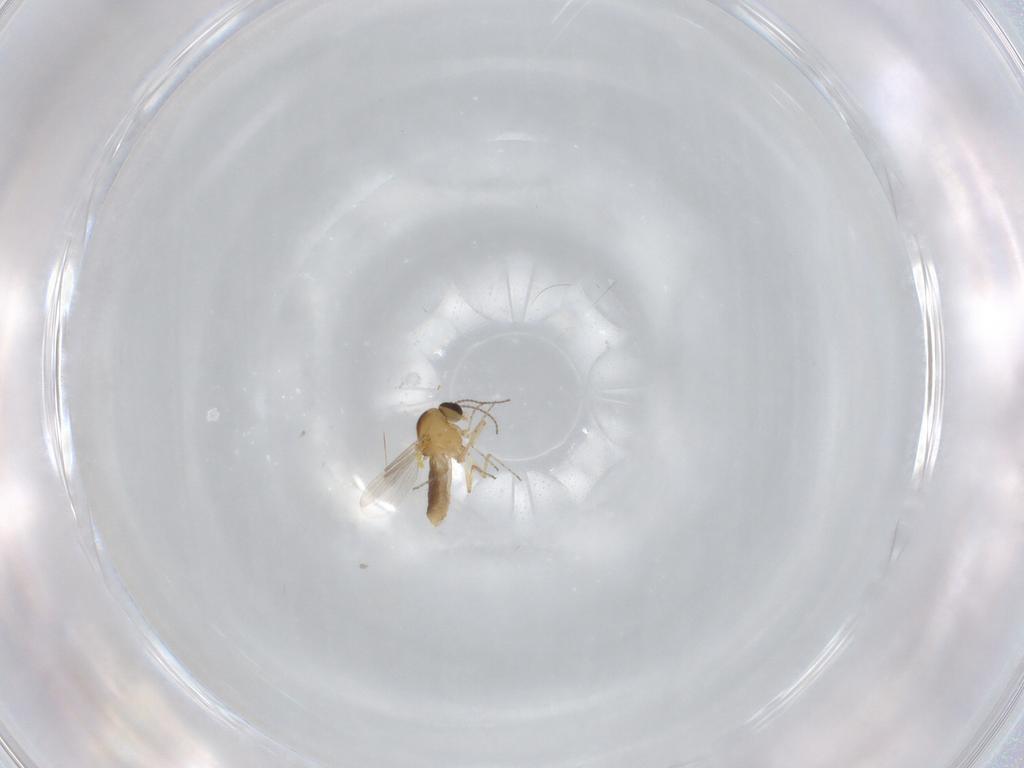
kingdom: Animalia
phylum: Arthropoda
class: Insecta
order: Diptera
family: Ceratopogonidae
